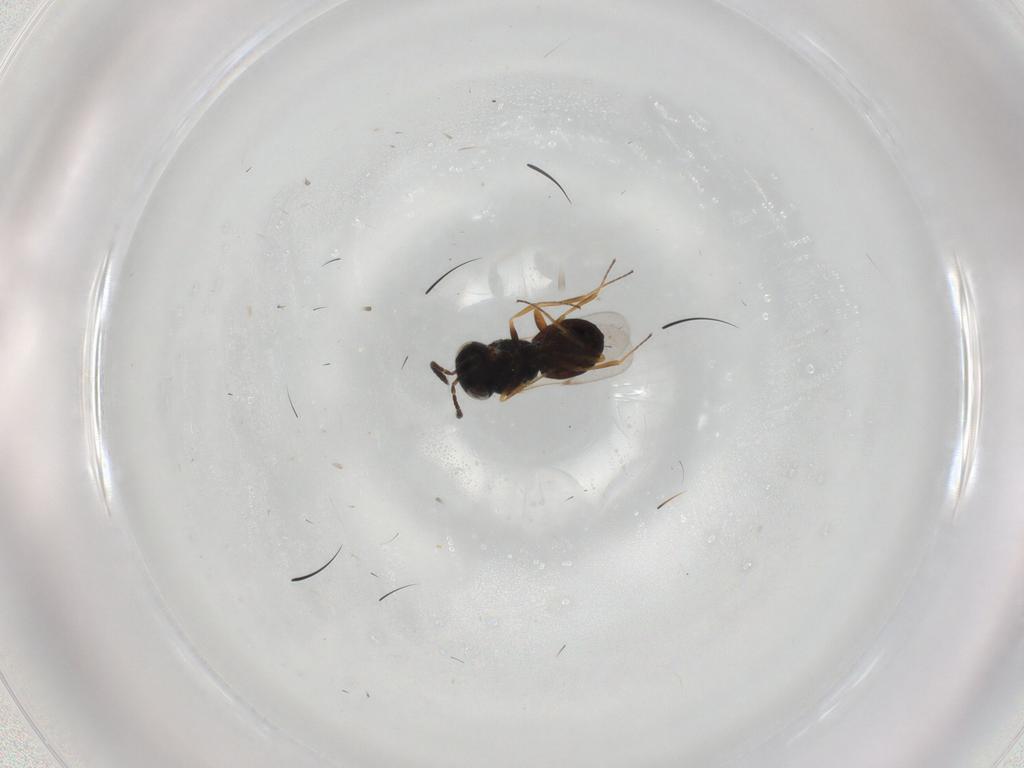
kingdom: Animalia
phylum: Arthropoda
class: Insecta
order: Hymenoptera
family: Scelionidae
